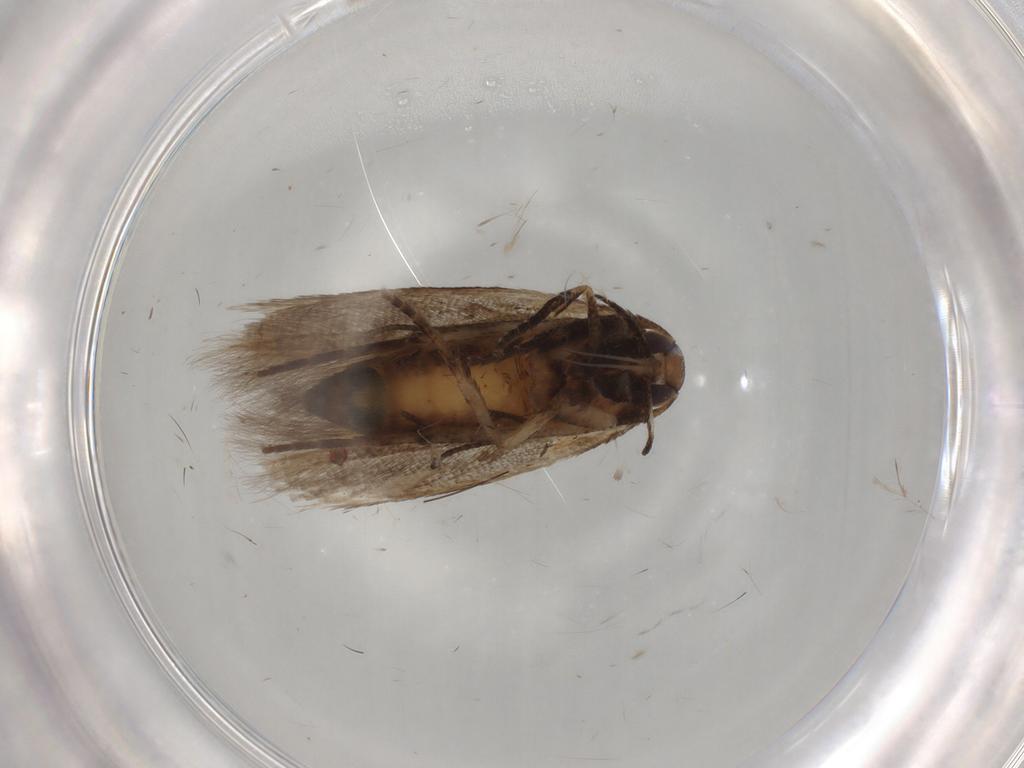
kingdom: Animalia
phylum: Arthropoda
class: Insecta
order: Lepidoptera
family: Cosmopterigidae
